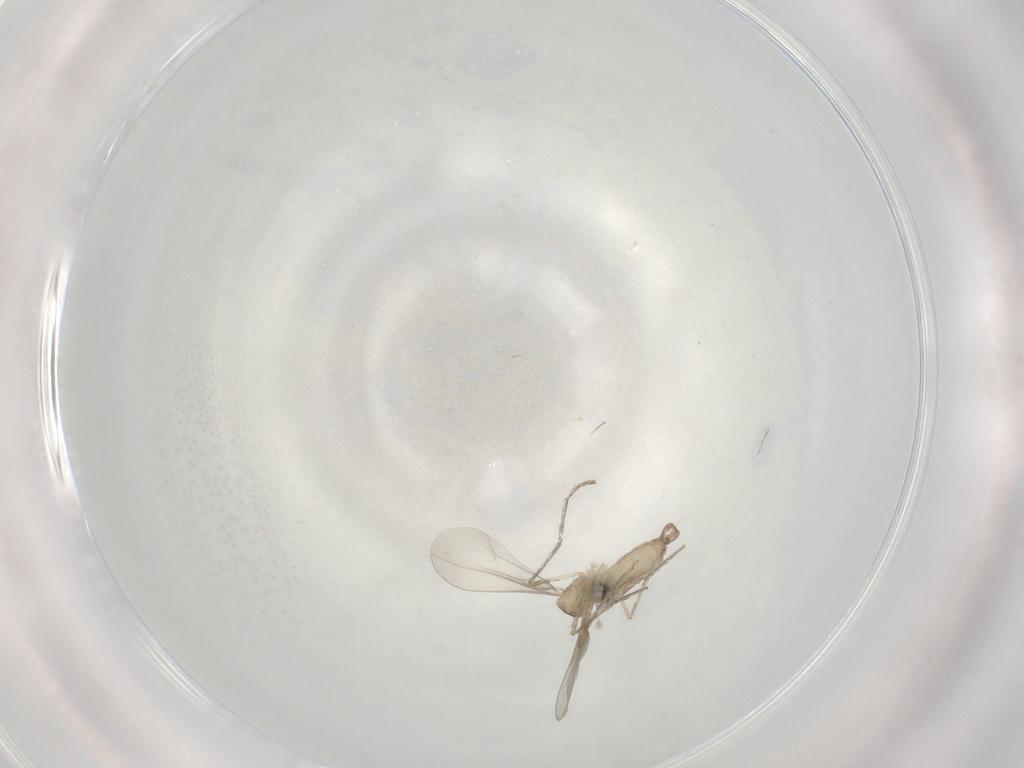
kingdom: Animalia
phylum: Arthropoda
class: Insecta
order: Diptera
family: Cecidomyiidae
